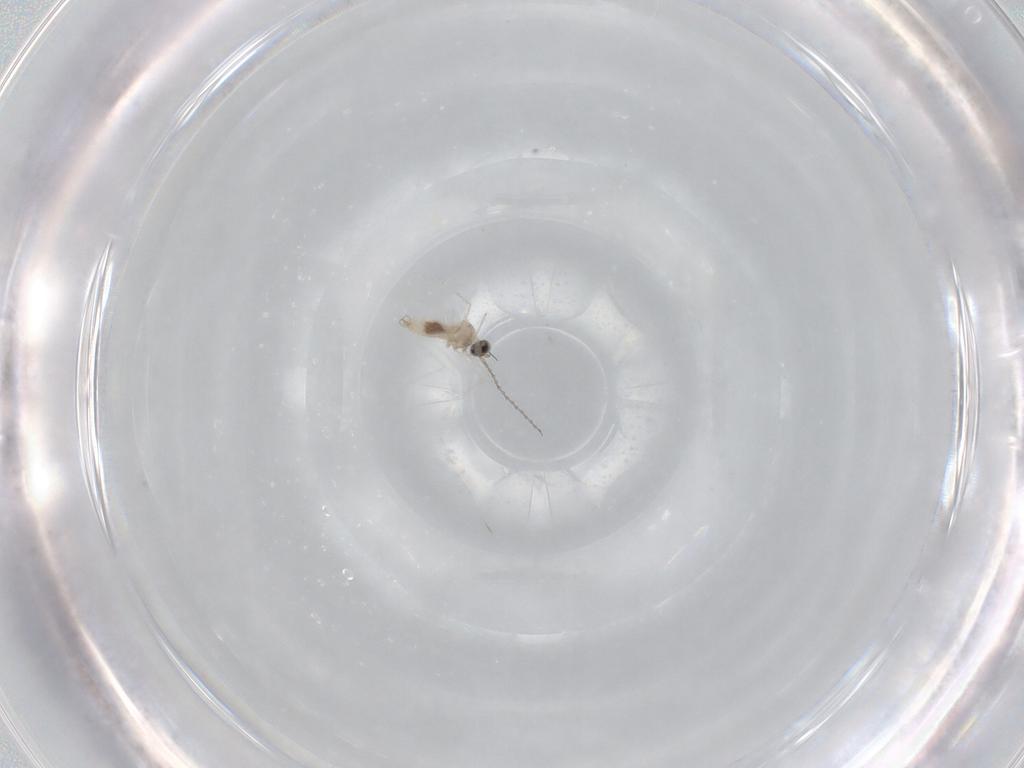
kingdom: Animalia
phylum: Arthropoda
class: Insecta
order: Diptera
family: Cecidomyiidae
